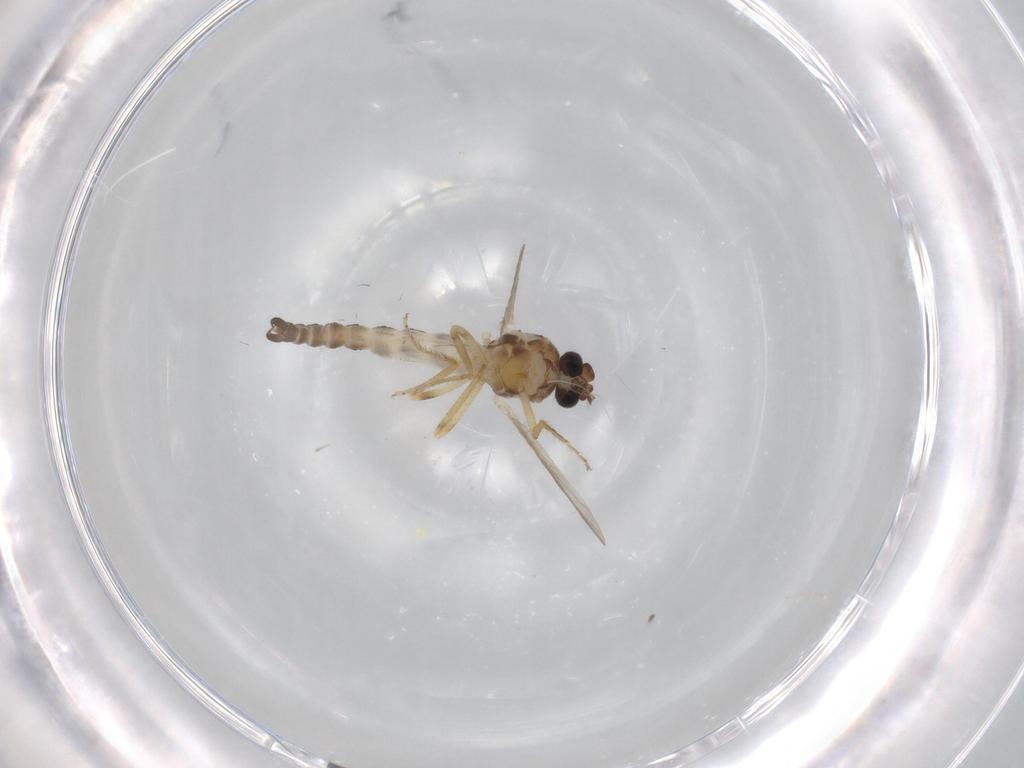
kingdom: Animalia
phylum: Arthropoda
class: Insecta
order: Diptera
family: Ceratopogonidae
